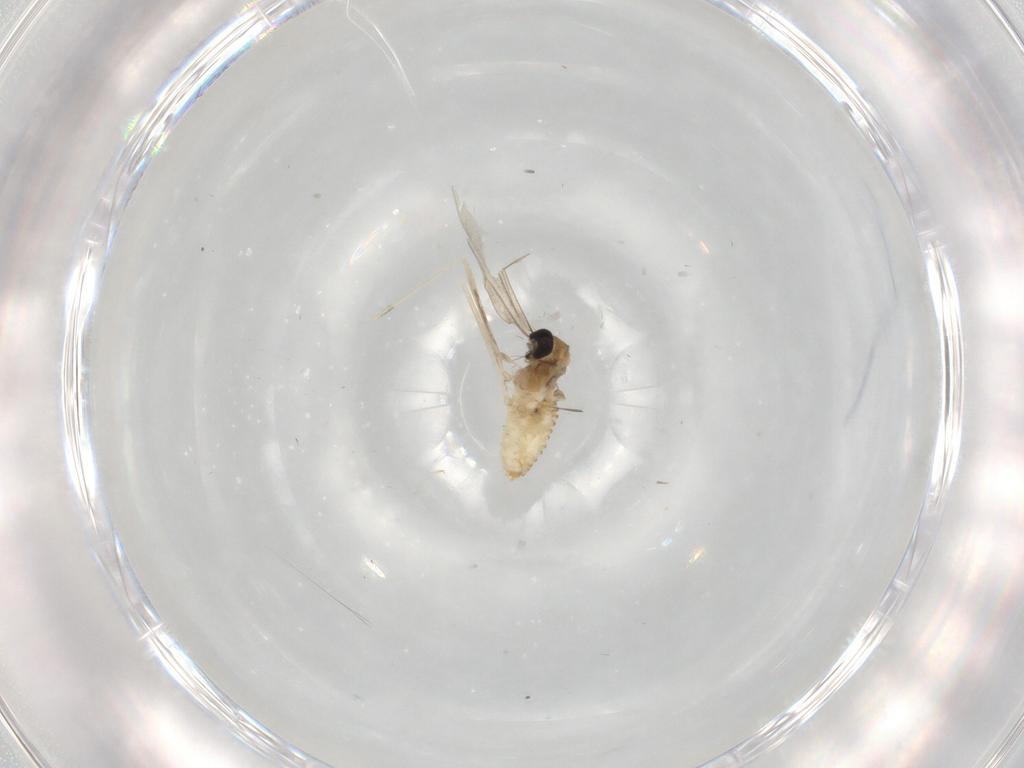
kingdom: Animalia
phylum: Arthropoda
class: Insecta
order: Diptera
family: Cecidomyiidae
